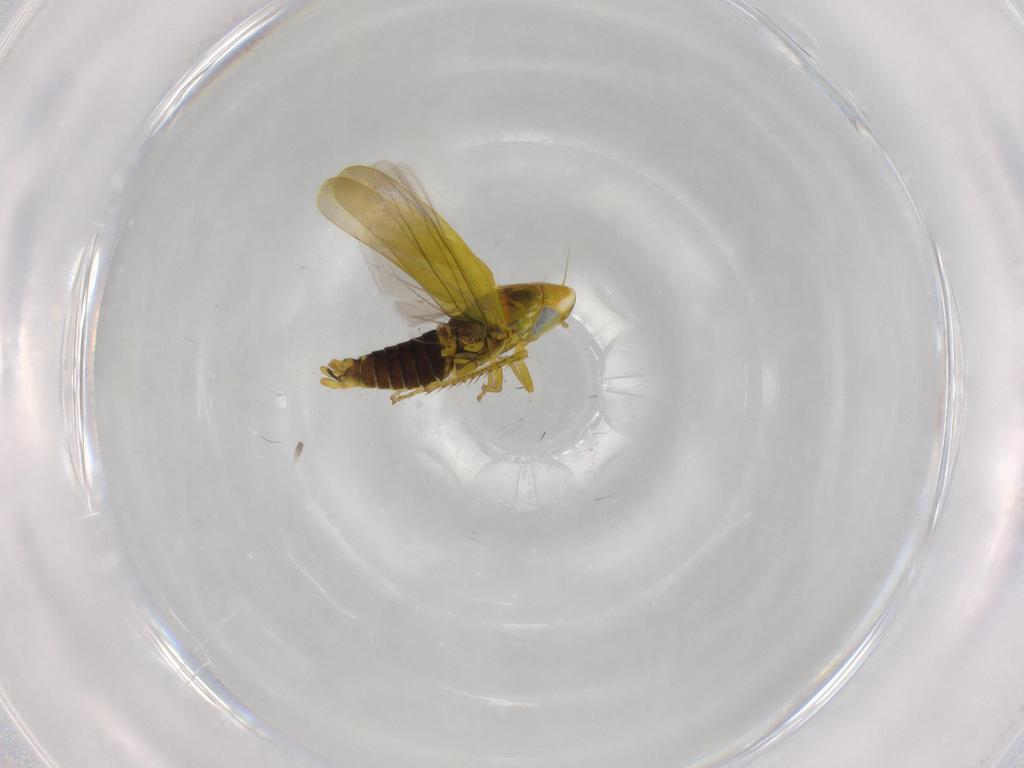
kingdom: Animalia
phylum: Arthropoda
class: Insecta
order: Hemiptera
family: Cicadellidae
